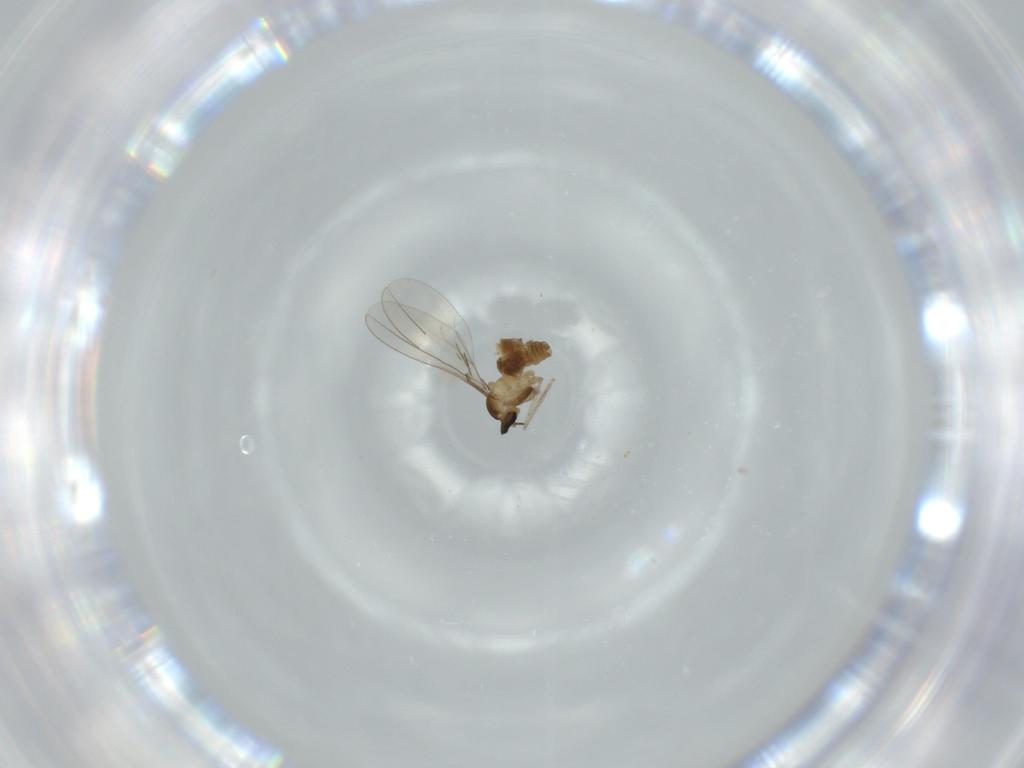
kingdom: Animalia
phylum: Arthropoda
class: Insecta
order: Diptera
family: Cecidomyiidae
